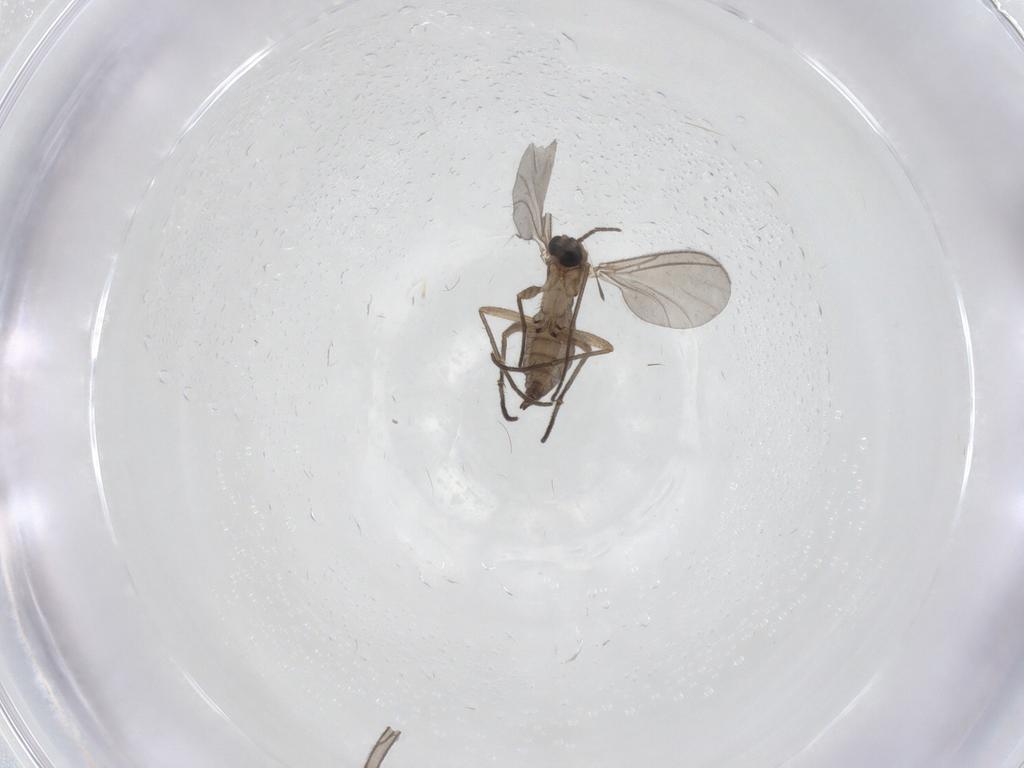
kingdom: Animalia
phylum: Arthropoda
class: Insecta
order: Diptera
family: Sciaridae
